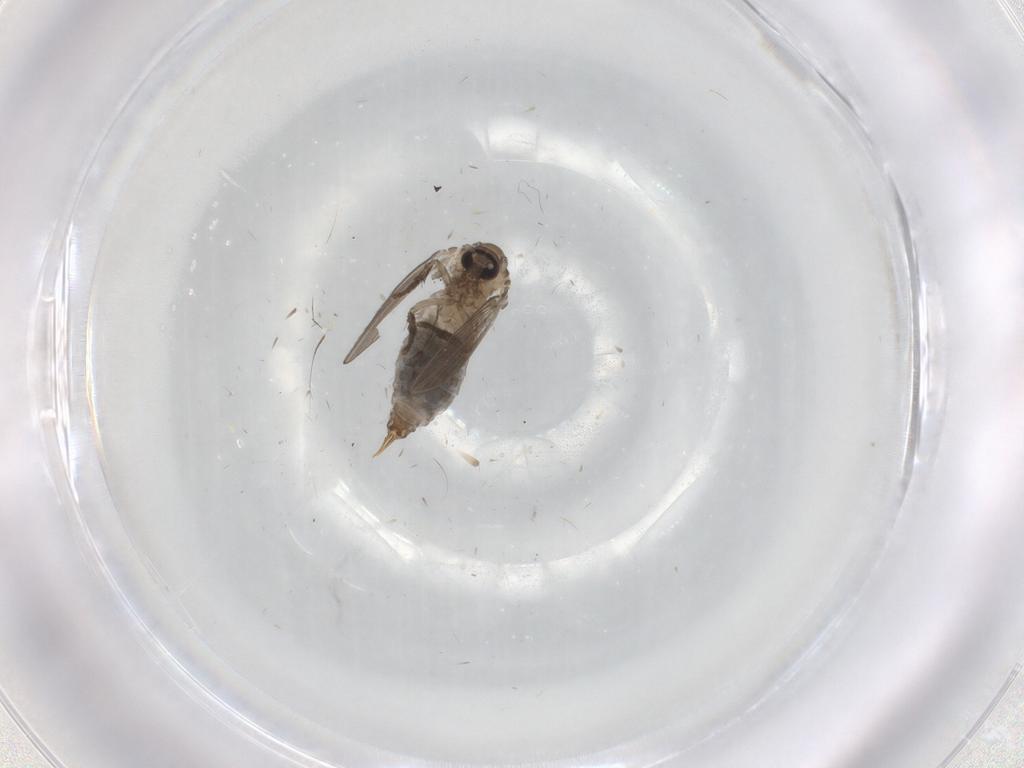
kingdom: Animalia
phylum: Arthropoda
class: Insecta
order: Diptera
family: Psychodidae
